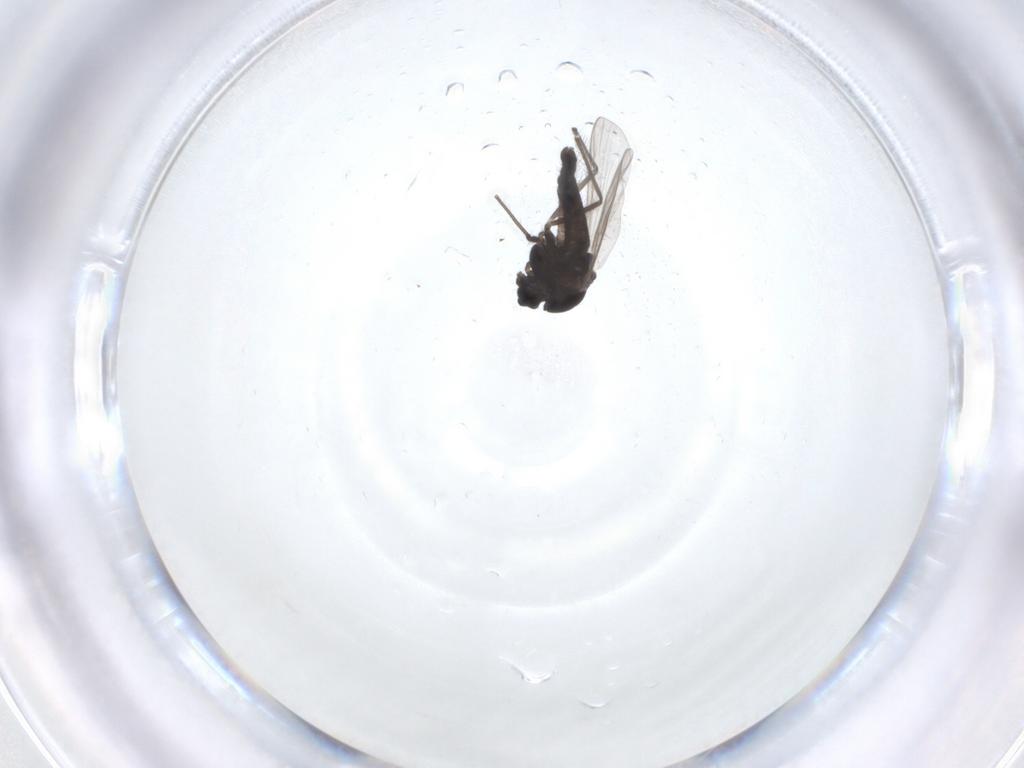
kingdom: Animalia
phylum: Arthropoda
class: Insecta
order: Diptera
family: Chironomidae
